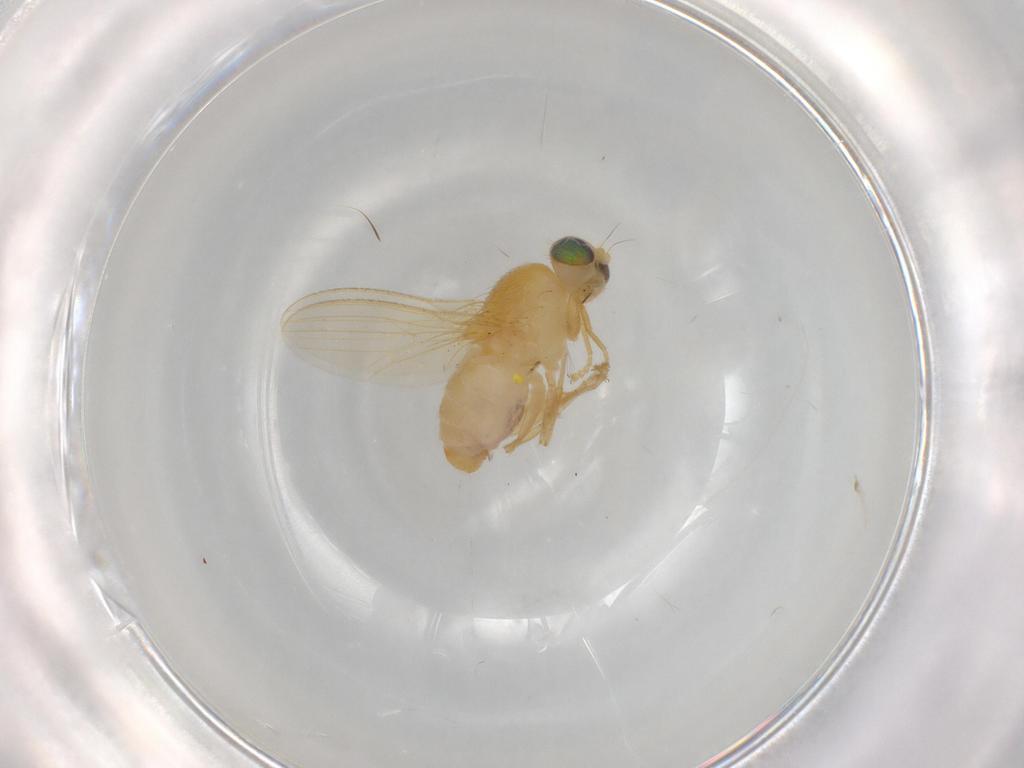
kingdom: Animalia
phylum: Arthropoda
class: Insecta
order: Diptera
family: Chyromyidae
